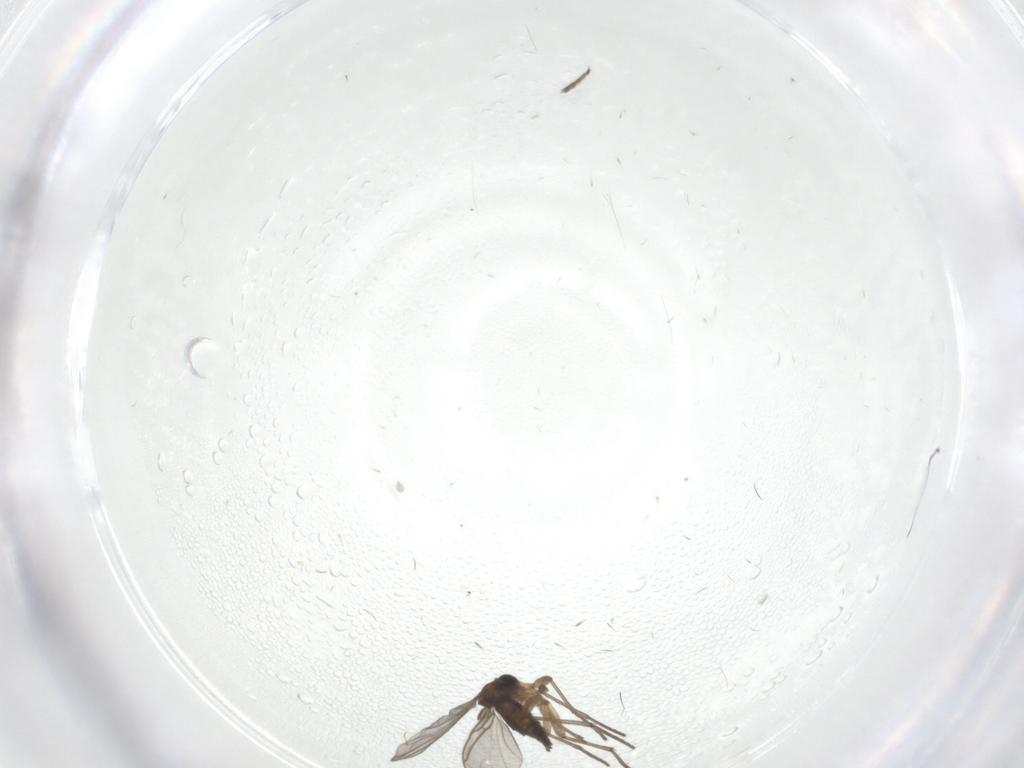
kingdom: Animalia
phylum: Arthropoda
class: Insecta
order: Diptera
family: Sciaridae
